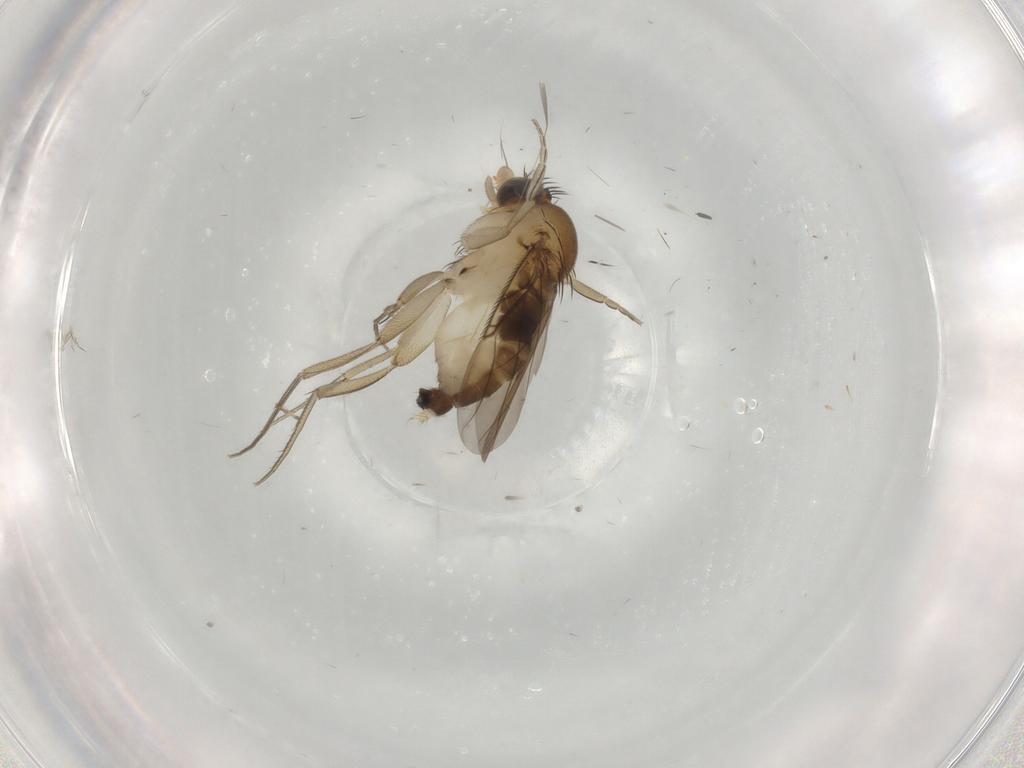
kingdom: Animalia
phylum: Arthropoda
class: Insecta
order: Diptera
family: Phoridae
